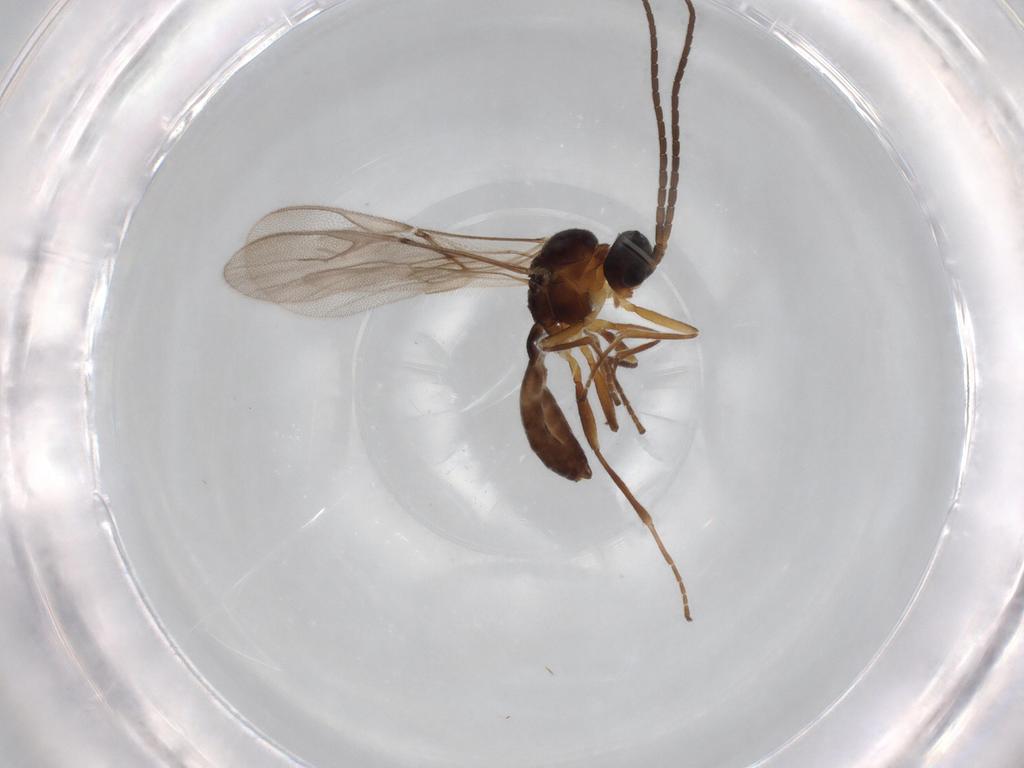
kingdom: Animalia
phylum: Arthropoda
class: Insecta
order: Hymenoptera
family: Braconidae
